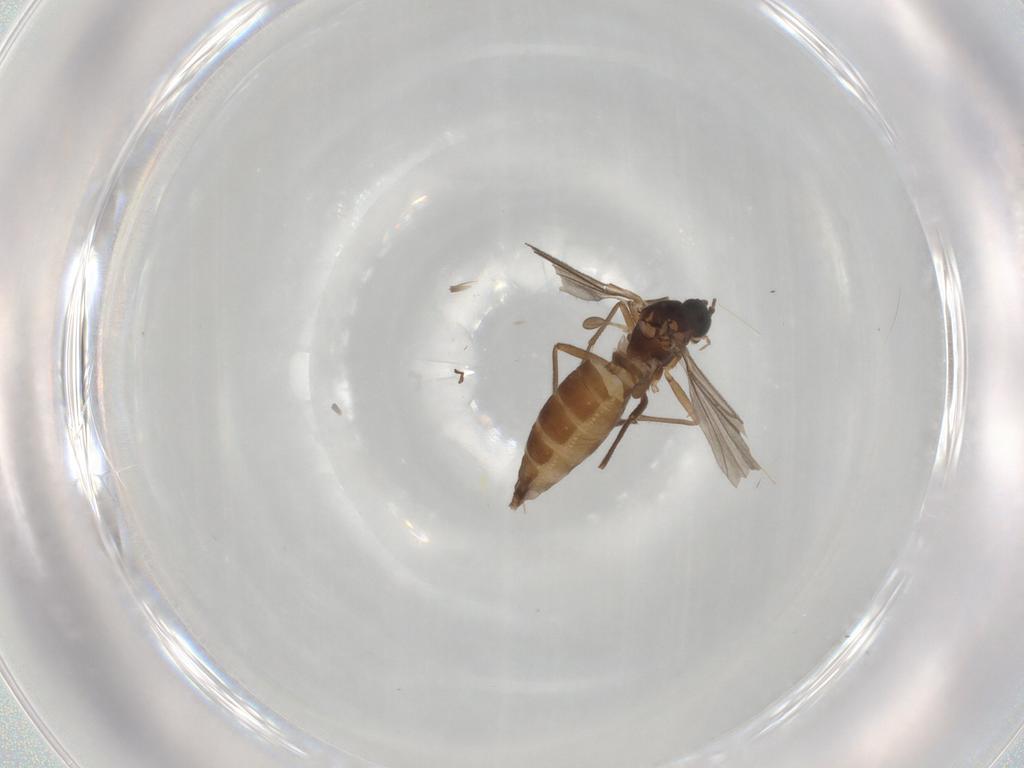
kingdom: Animalia
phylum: Arthropoda
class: Insecta
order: Diptera
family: Sciaridae
